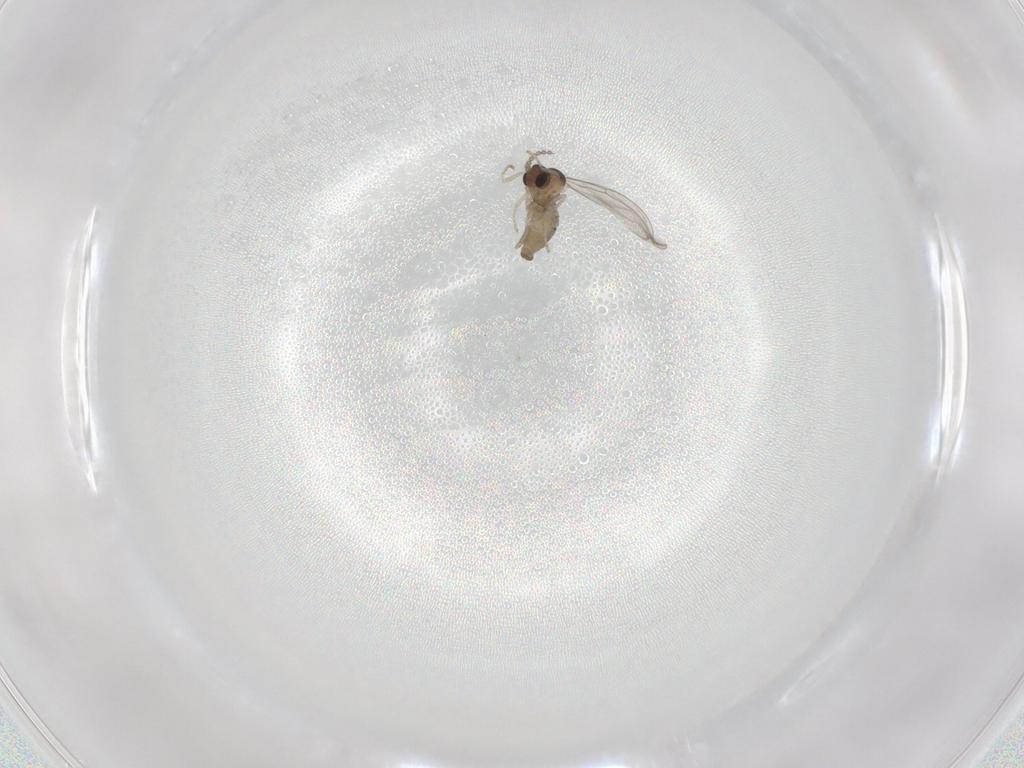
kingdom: Animalia
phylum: Arthropoda
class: Insecta
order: Diptera
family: Cecidomyiidae
